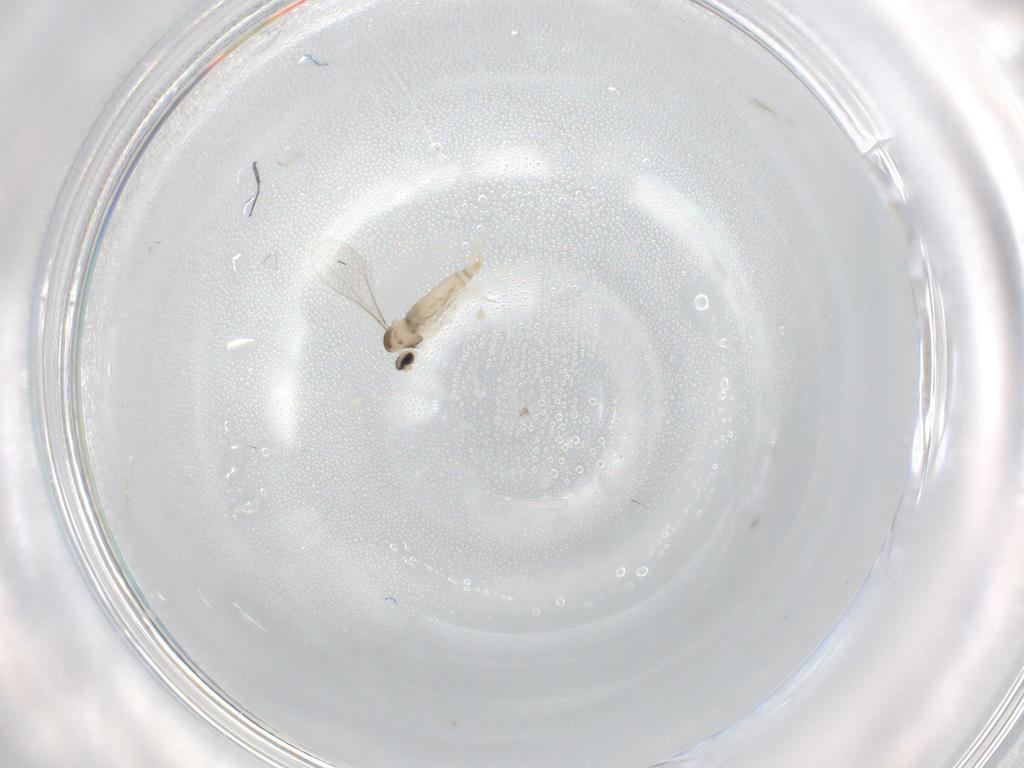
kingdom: Animalia
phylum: Arthropoda
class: Insecta
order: Diptera
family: Cecidomyiidae
